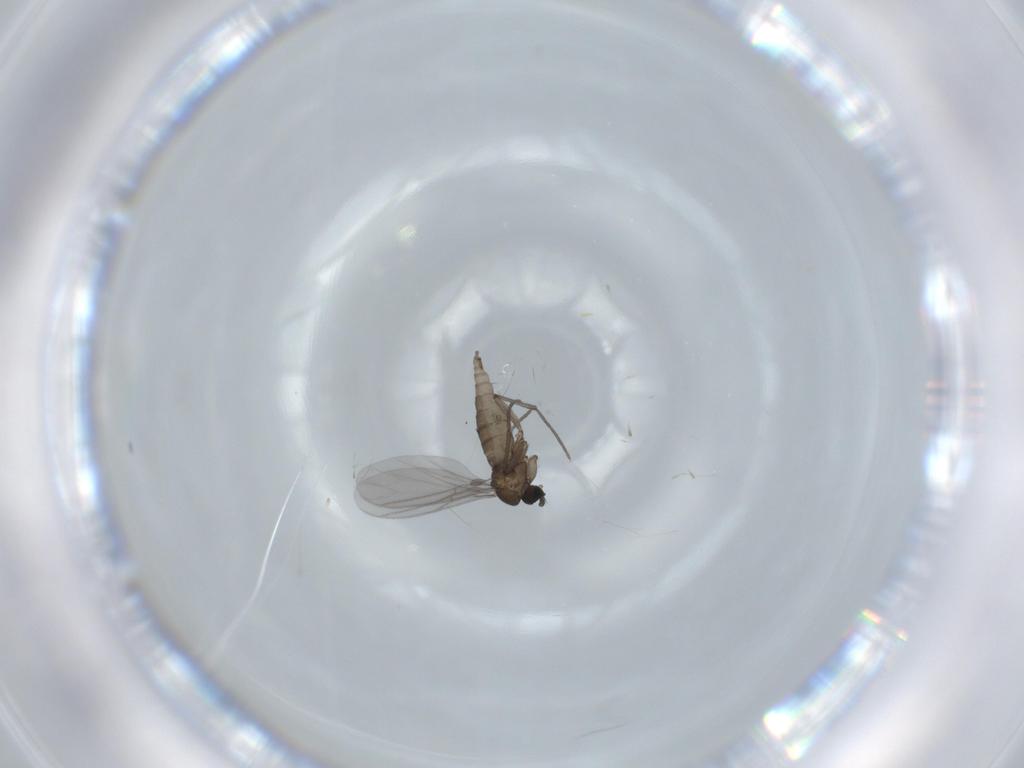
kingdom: Animalia
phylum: Arthropoda
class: Insecta
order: Diptera
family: Sciaridae
